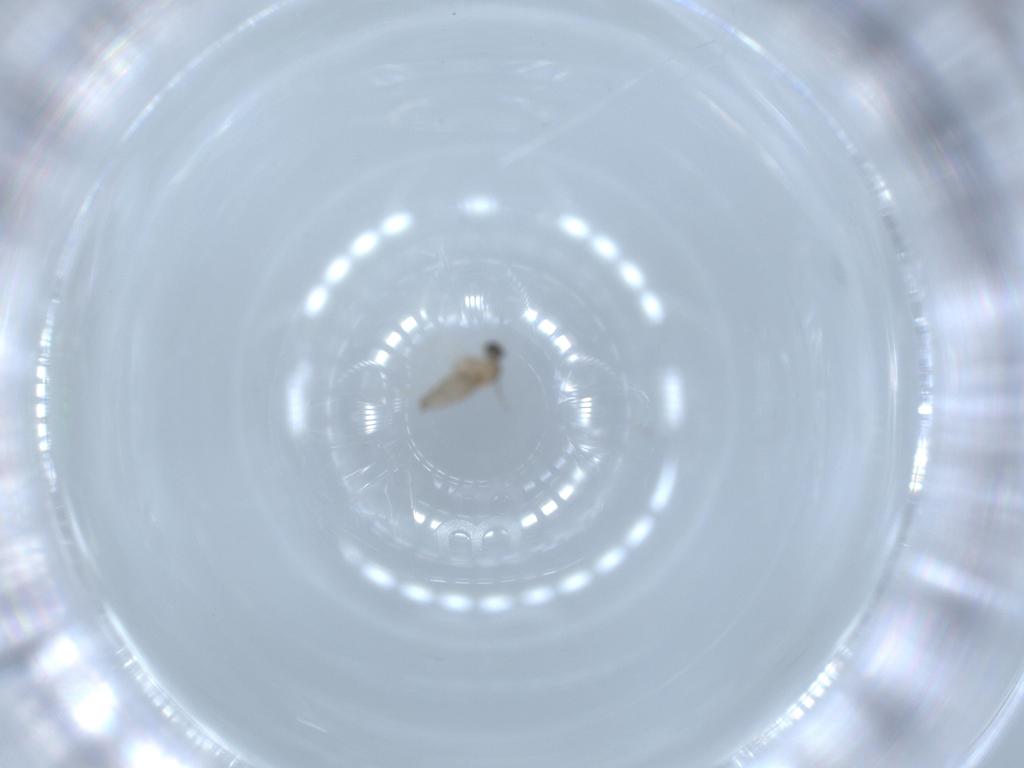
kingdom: Animalia
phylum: Arthropoda
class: Insecta
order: Diptera
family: Cecidomyiidae
